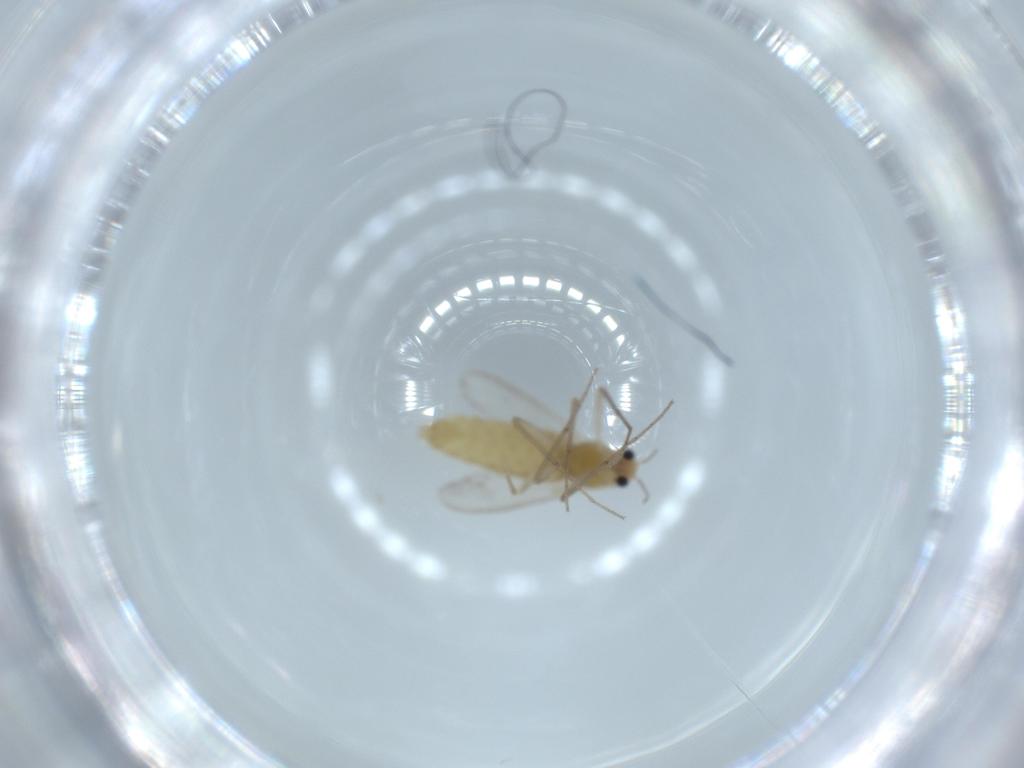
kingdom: Animalia
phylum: Arthropoda
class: Insecta
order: Diptera
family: Chironomidae
